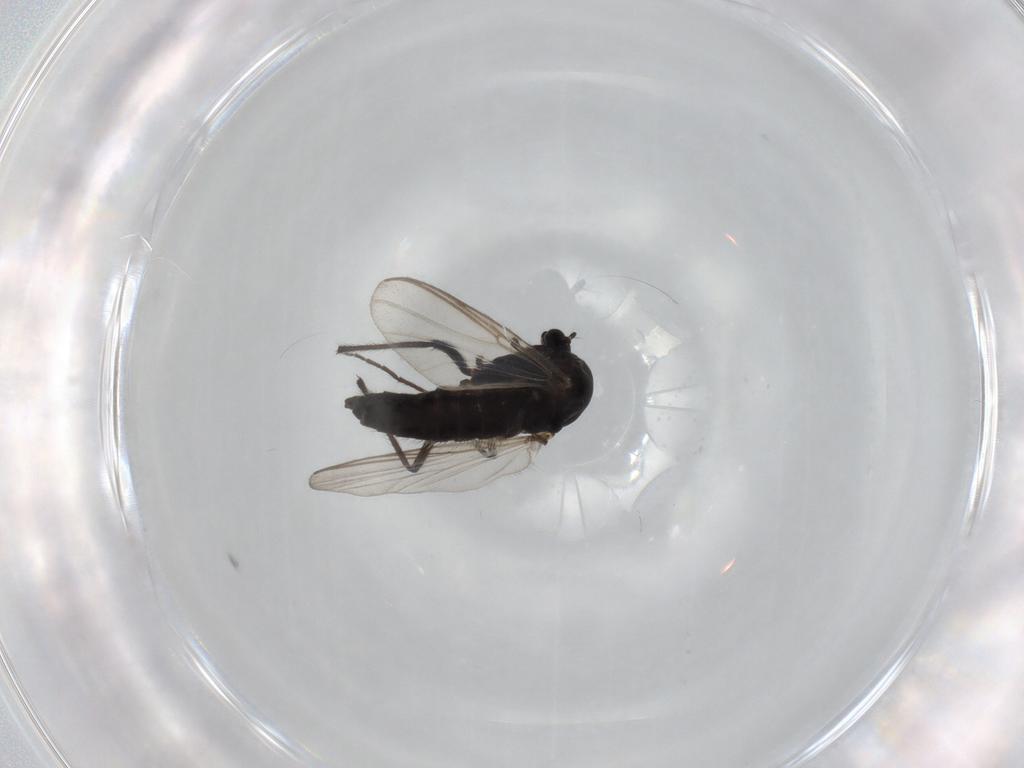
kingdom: Animalia
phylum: Arthropoda
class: Insecta
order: Diptera
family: Chironomidae
